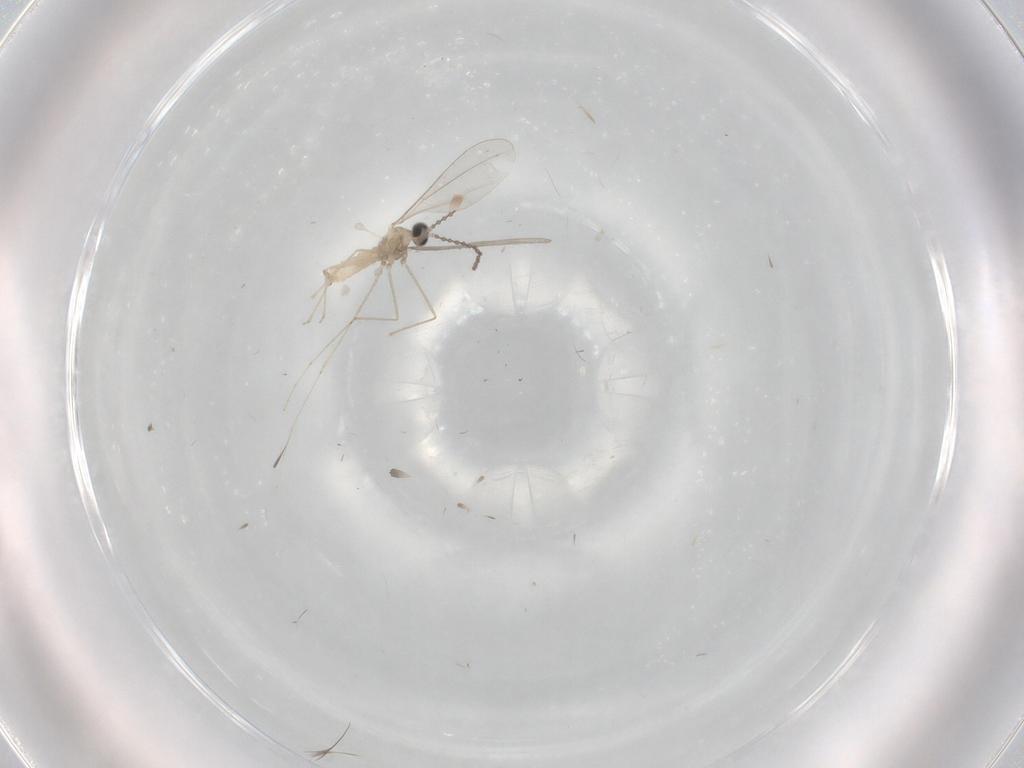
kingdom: Animalia
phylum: Arthropoda
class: Insecta
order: Diptera
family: Cecidomyiidae
